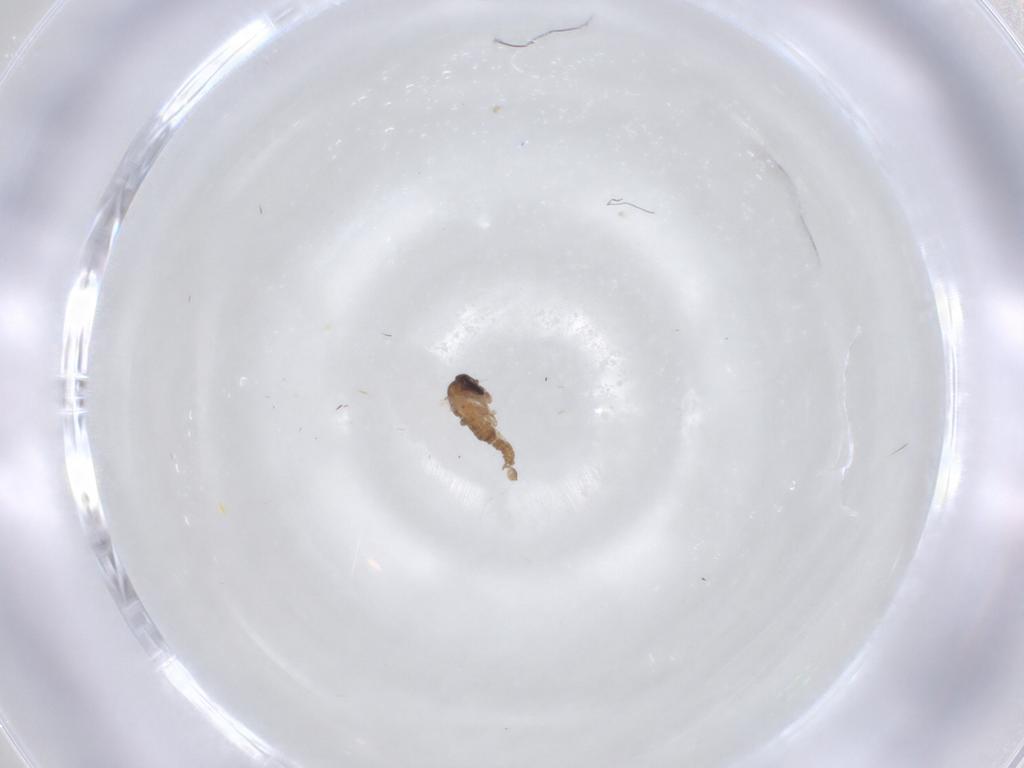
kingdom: Animalia
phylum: Arthropoda
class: Insecta
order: Diptera
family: Psychodidae
